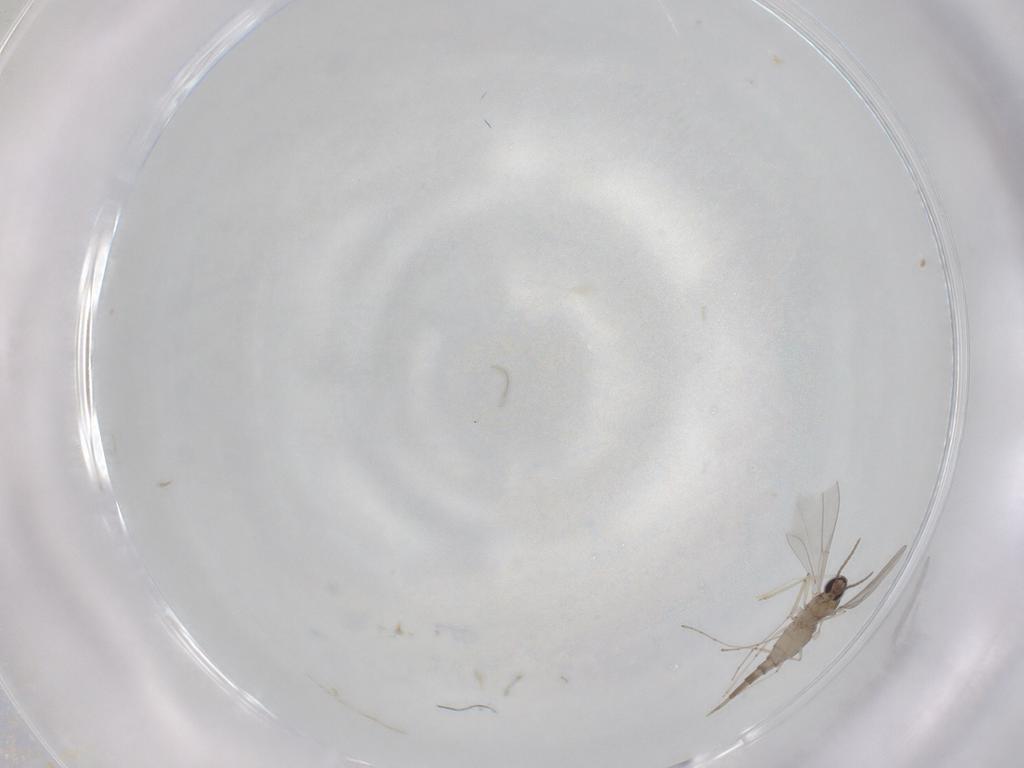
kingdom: Animalia
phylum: Arthropoda
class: Insecta
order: Diptera
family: Cecidomyiidae
